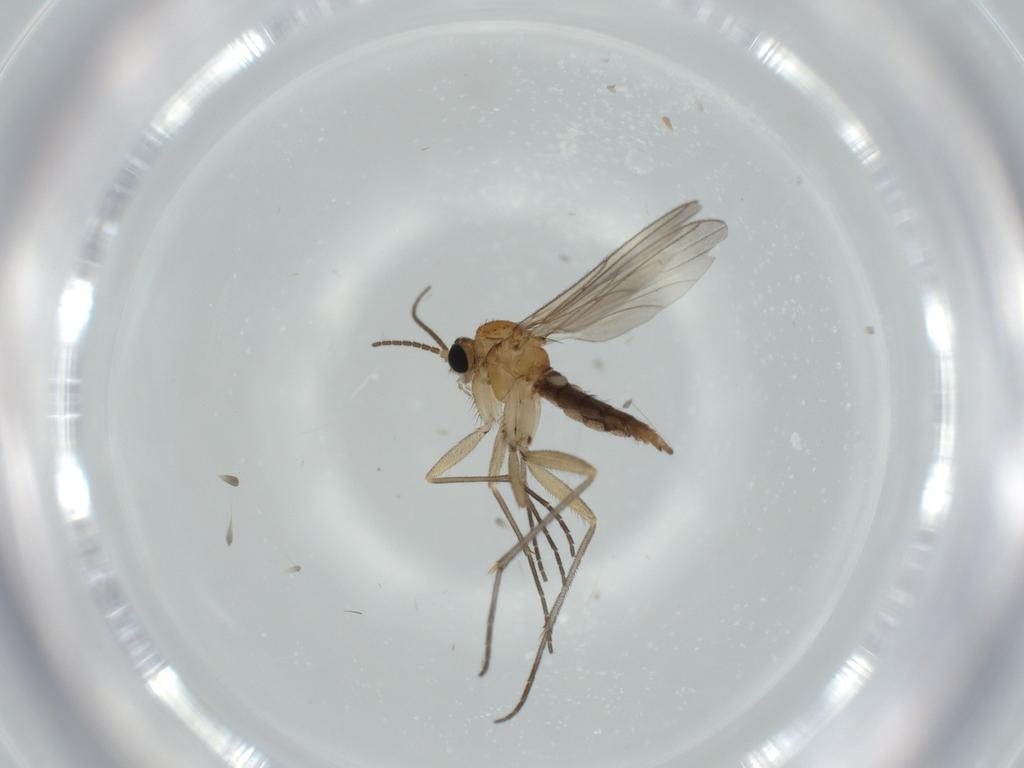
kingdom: Animalia
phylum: Arthropoda
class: Insecta
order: Diptera
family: Sciaridae
